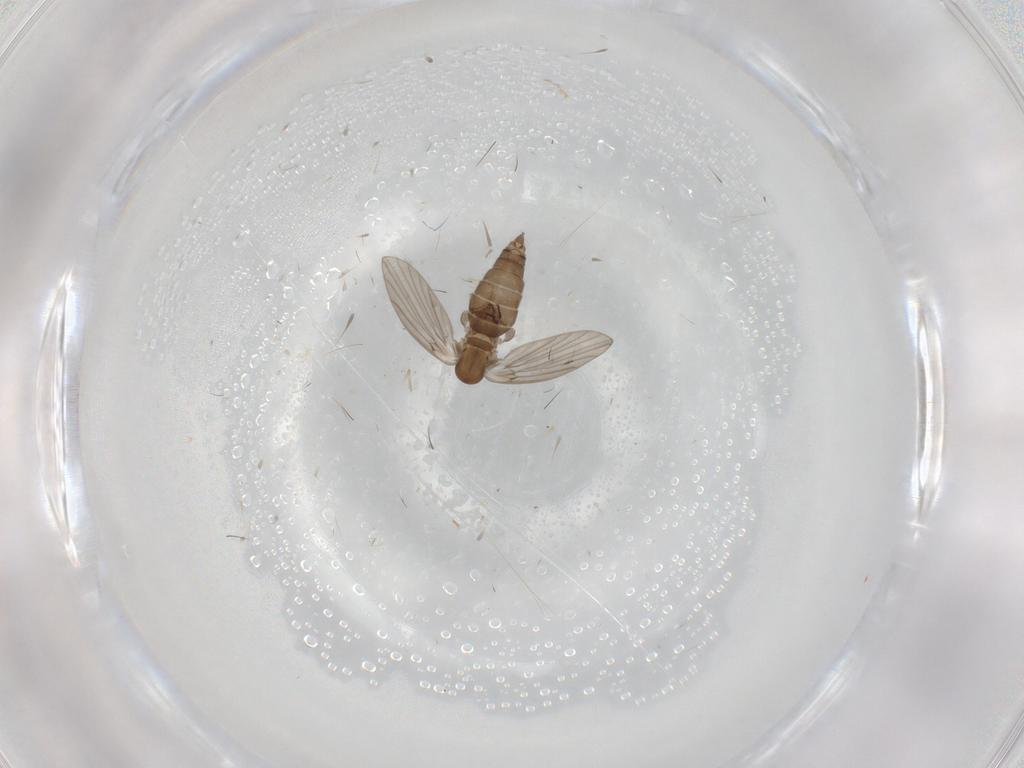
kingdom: Animalia
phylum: Arthropoda
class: Insecta
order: Diptera
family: Psychodidae
